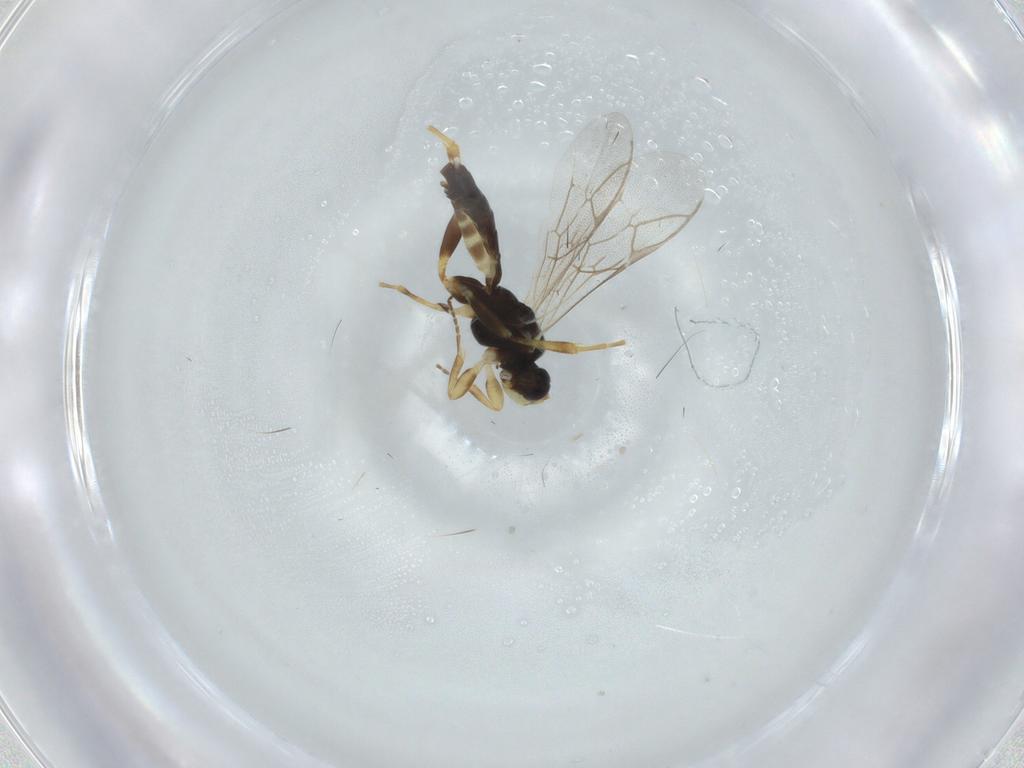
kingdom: Animalia
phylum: Arthropoda
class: Insecta
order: Hymenoptera
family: Ichneumonidae
